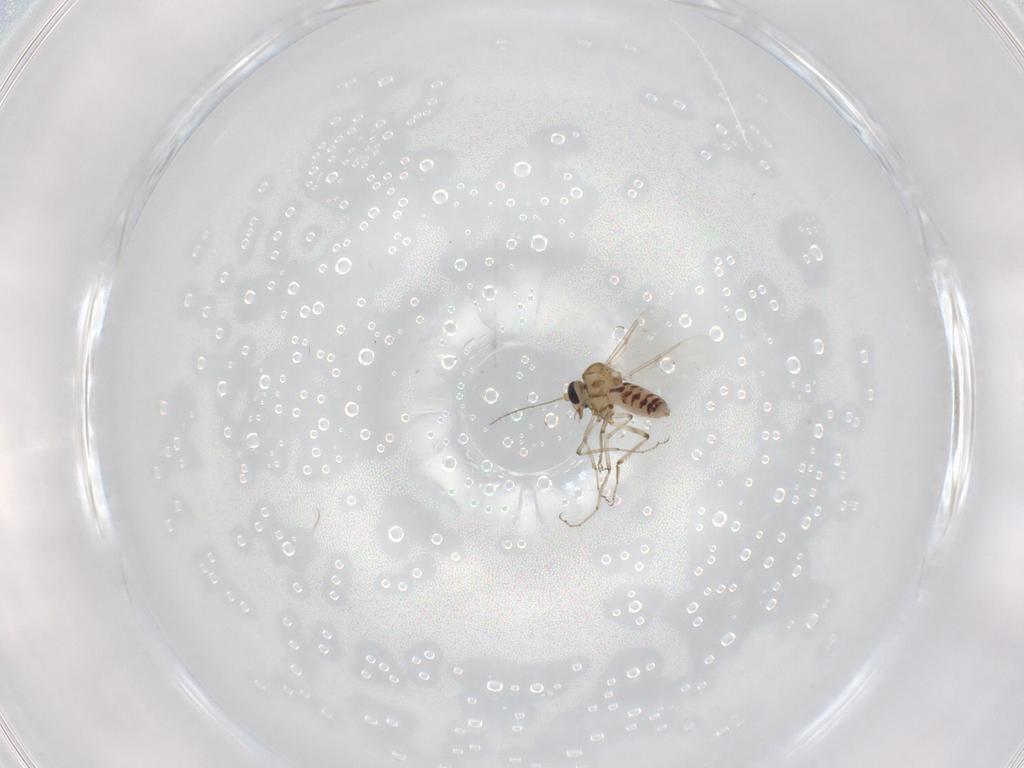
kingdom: Animalia
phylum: Arthropoda
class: Insecta
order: Diptera
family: Ceratopogonidae
